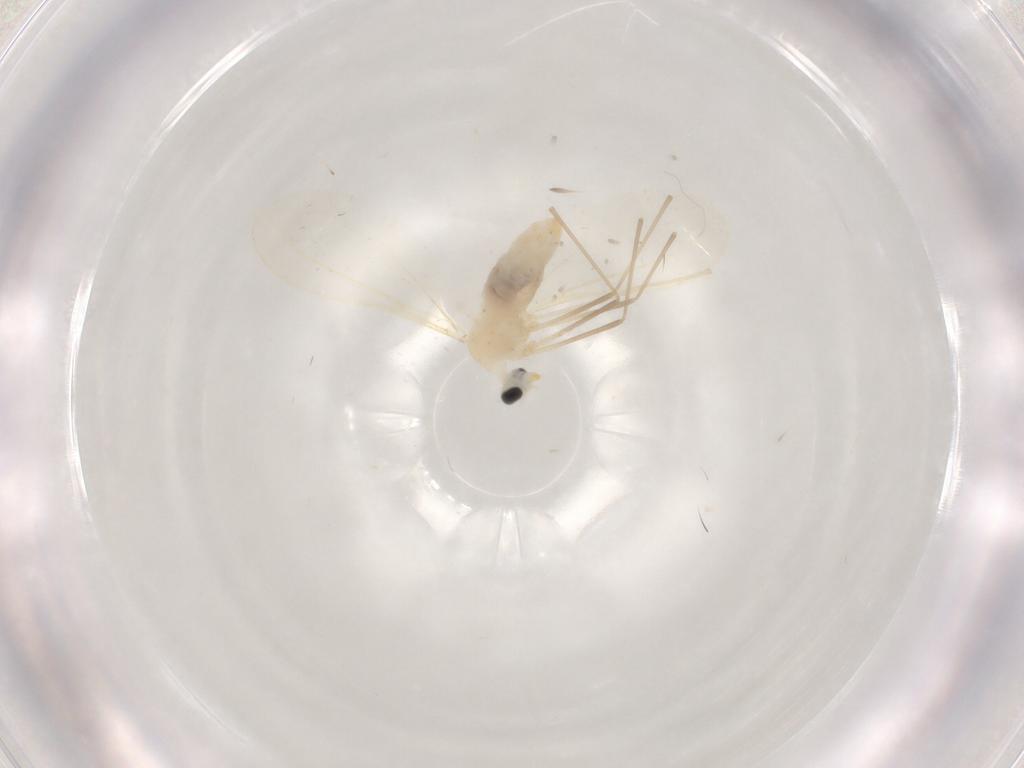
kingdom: Animalia
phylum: Arthropoda
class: Insecta
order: Diptera
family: Cecidomyiidae
